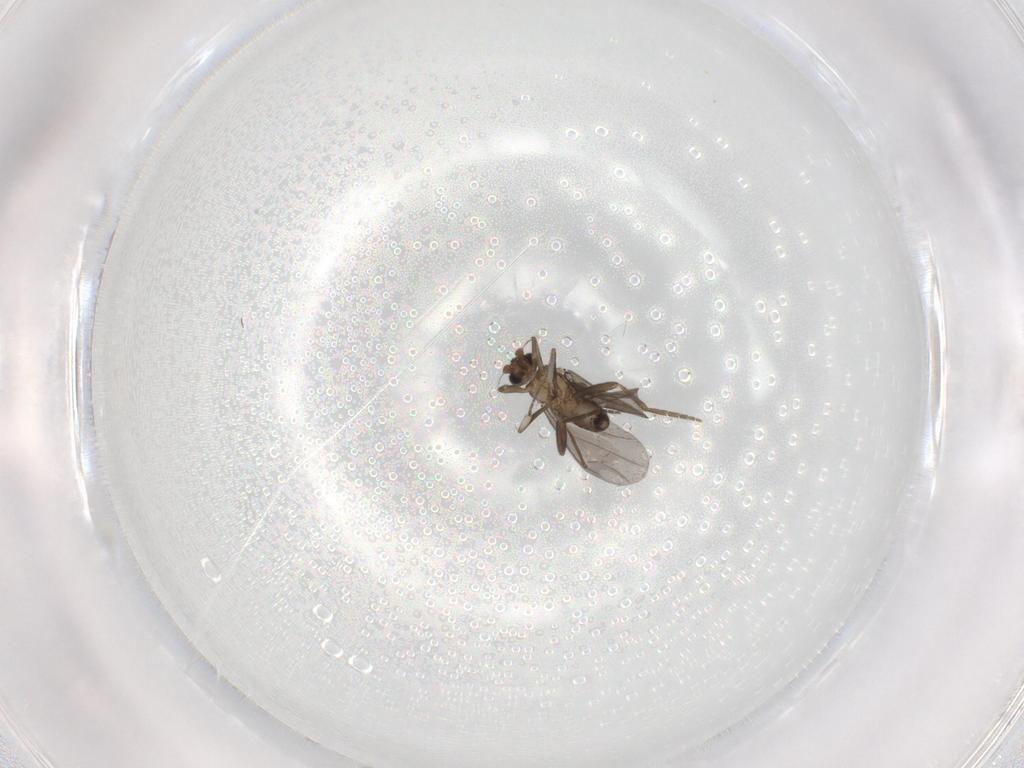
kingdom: Animalia
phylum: Arthropoda
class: Insecta
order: Diptera
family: Phoridae
